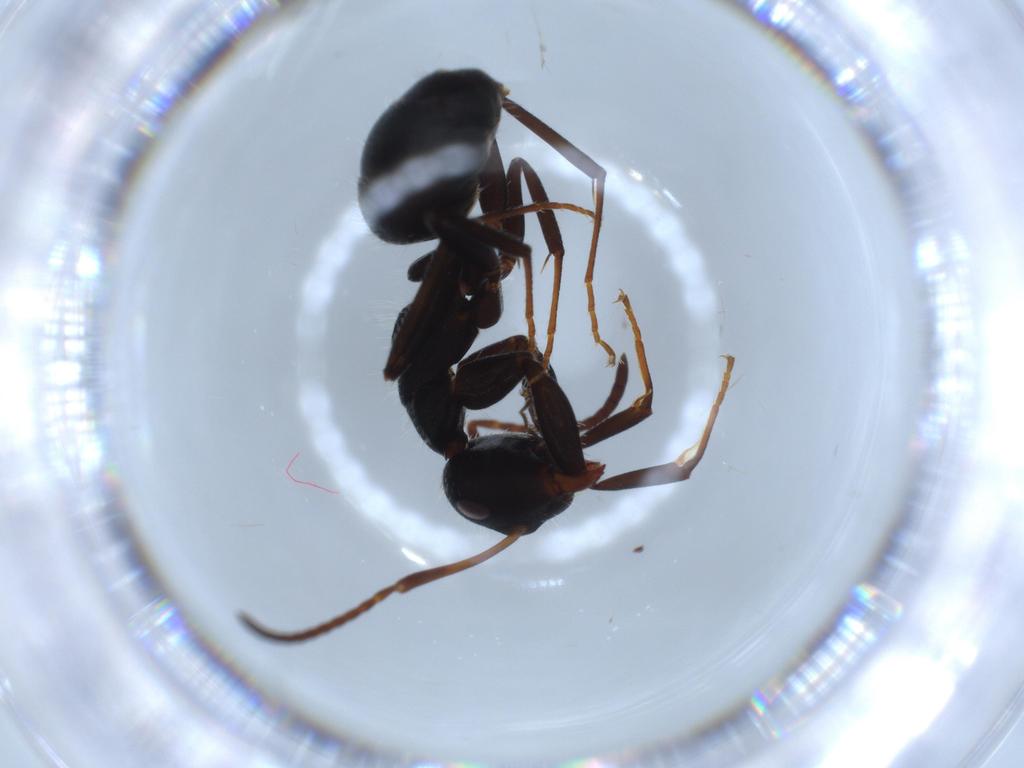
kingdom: Animalia
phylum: Arthropoda
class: Insecta
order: Hymenoptera
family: Formicidae
